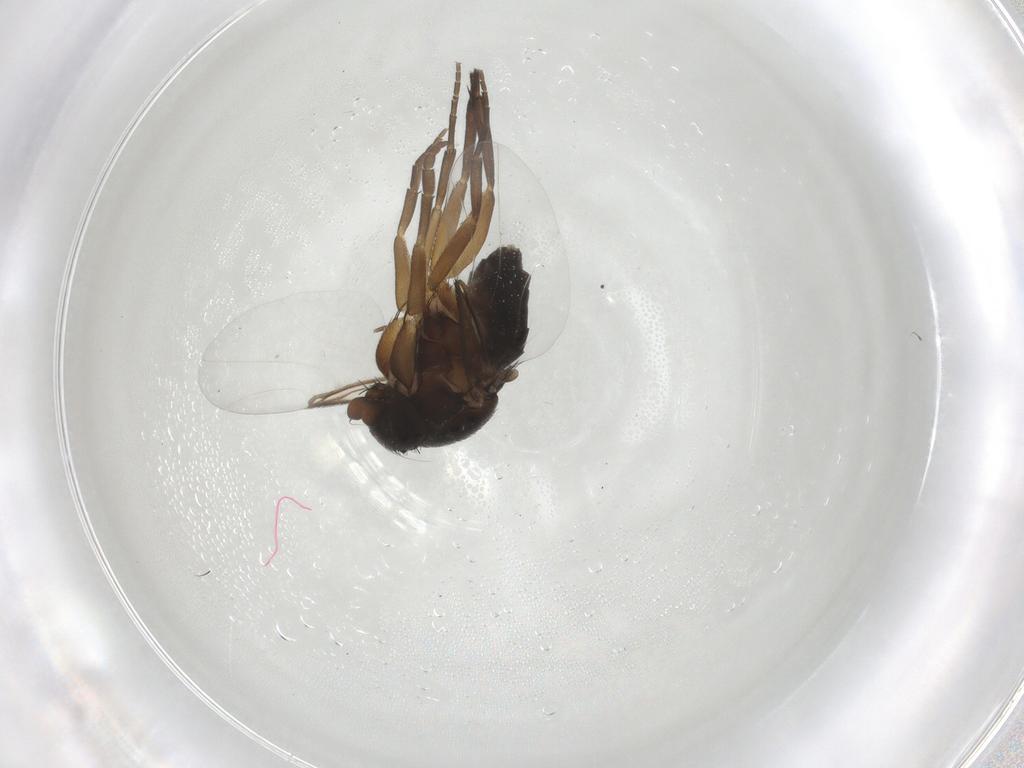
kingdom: Animalia
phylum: Arthropoda
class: Insecta
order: Diptera
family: Phoridae
